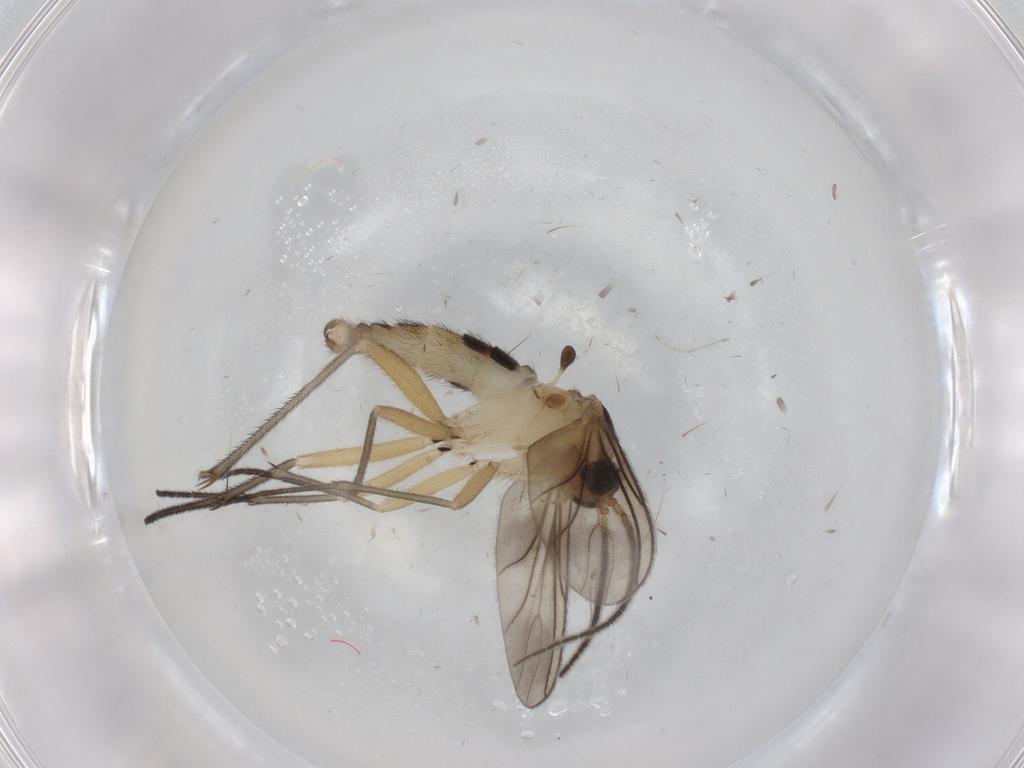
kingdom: Animalia
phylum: Arthropoda
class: Insecta
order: Diptera
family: Sciaridae
